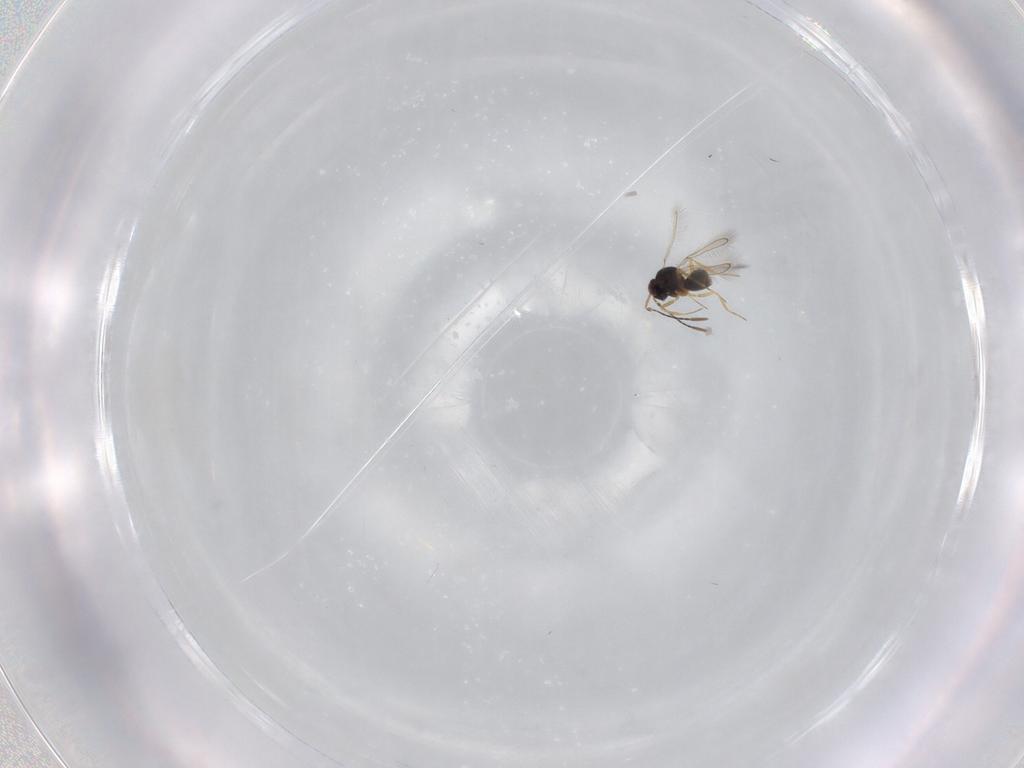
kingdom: Animalia
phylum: Arthropoda
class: Insecta
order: Hymenoptera
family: Mymaridae
